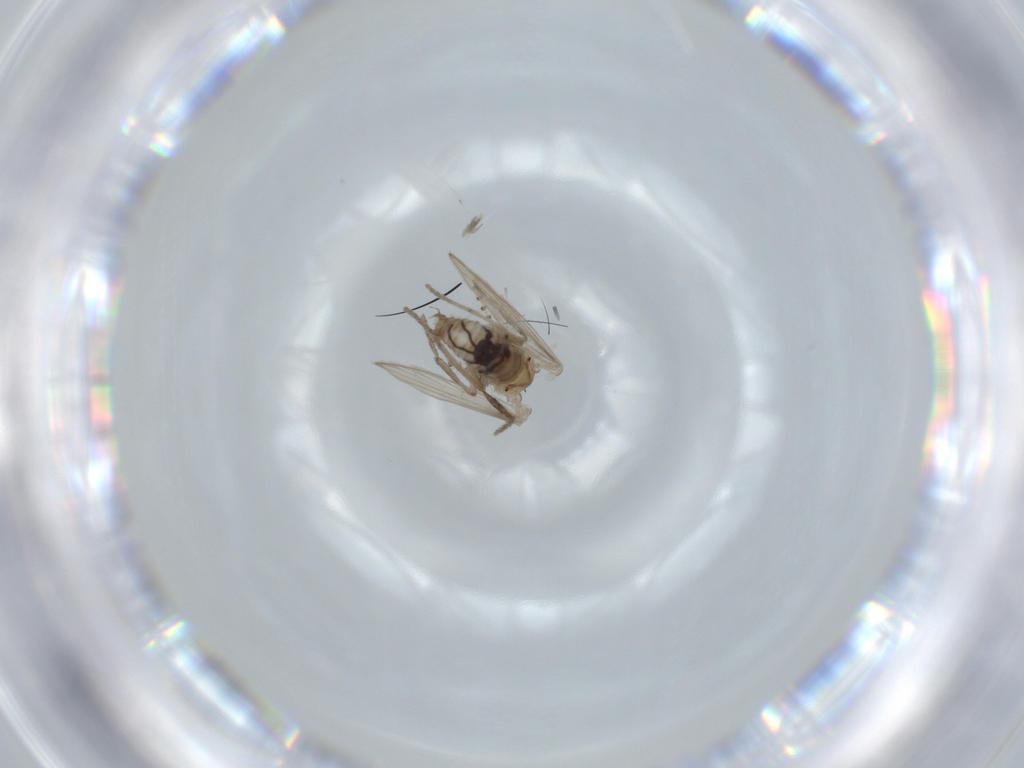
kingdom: Animalia
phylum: Arthropoda
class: Insecta
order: Diptera
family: Psychodidae
